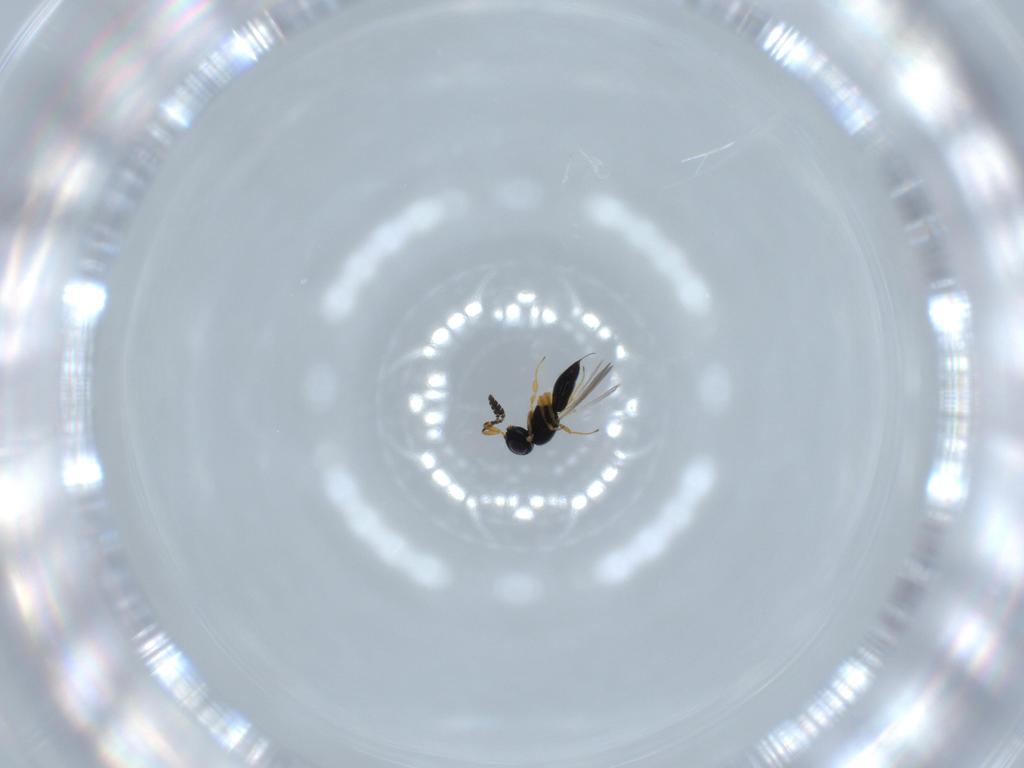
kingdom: Animalia
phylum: Arthropoda
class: Insecta
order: Hymenoptera
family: Scelionidae
